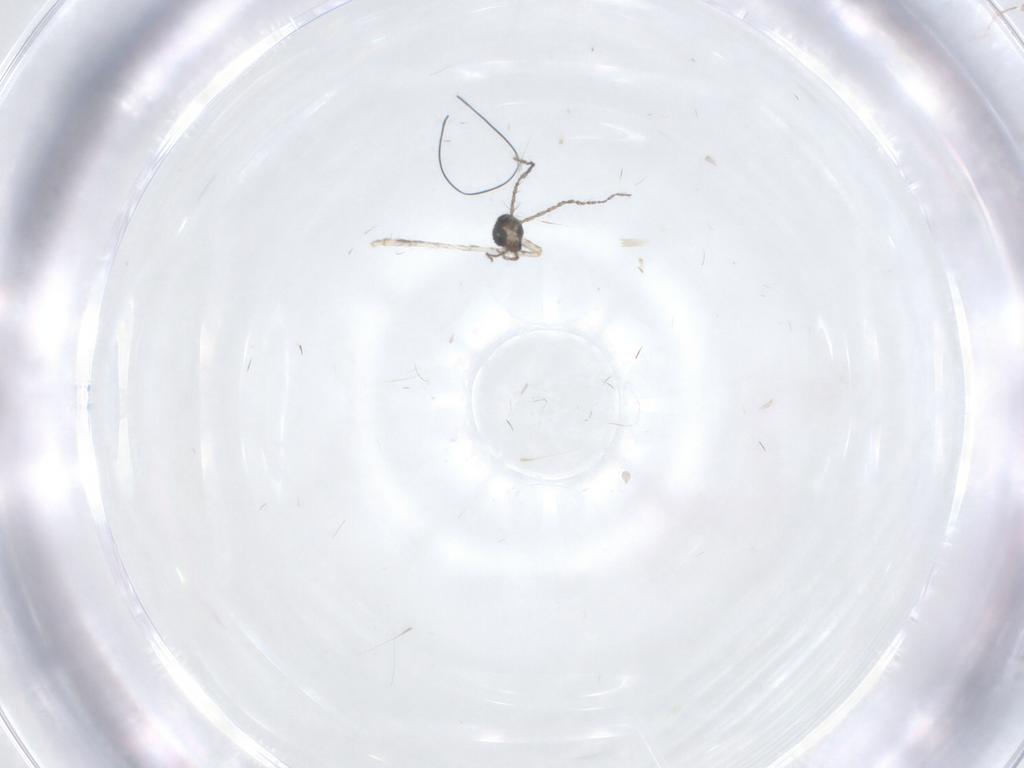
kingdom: Animalia
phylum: Arthropoda
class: Insecta
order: Diptera
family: Cecidomyiidae
